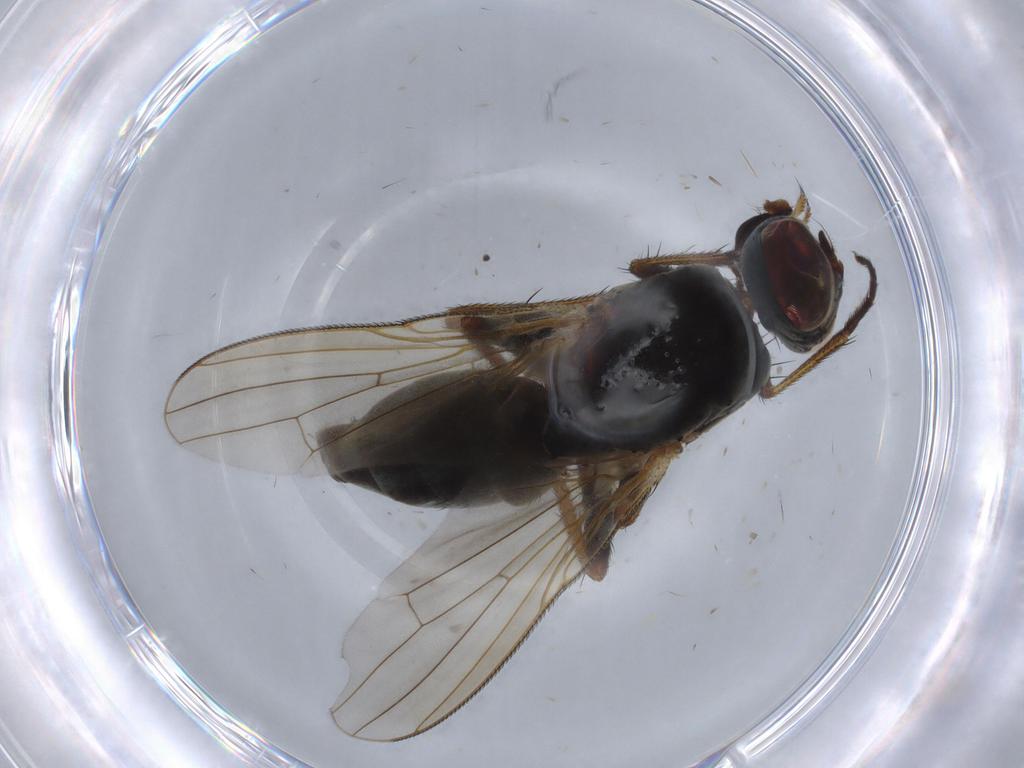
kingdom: Animalia
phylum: Arthropoda
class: Insecta
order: Diptera
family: Muscidae
